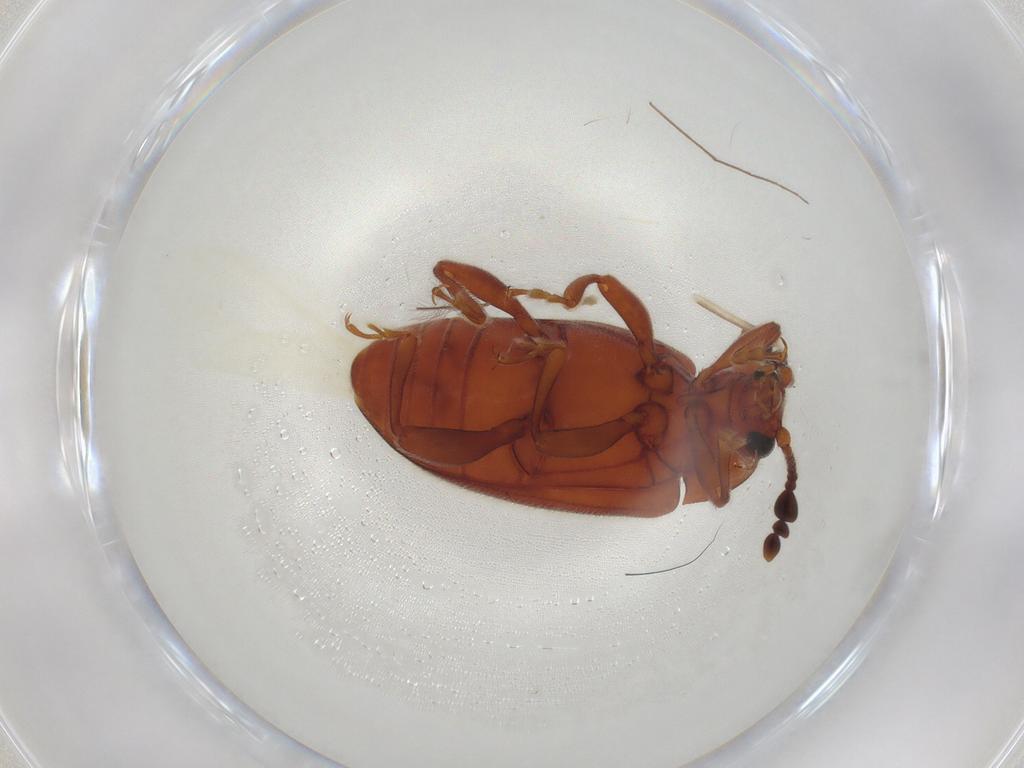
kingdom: Animalia
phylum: Arthropoda
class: Insecta
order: Coleoptera
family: Endomychidae
